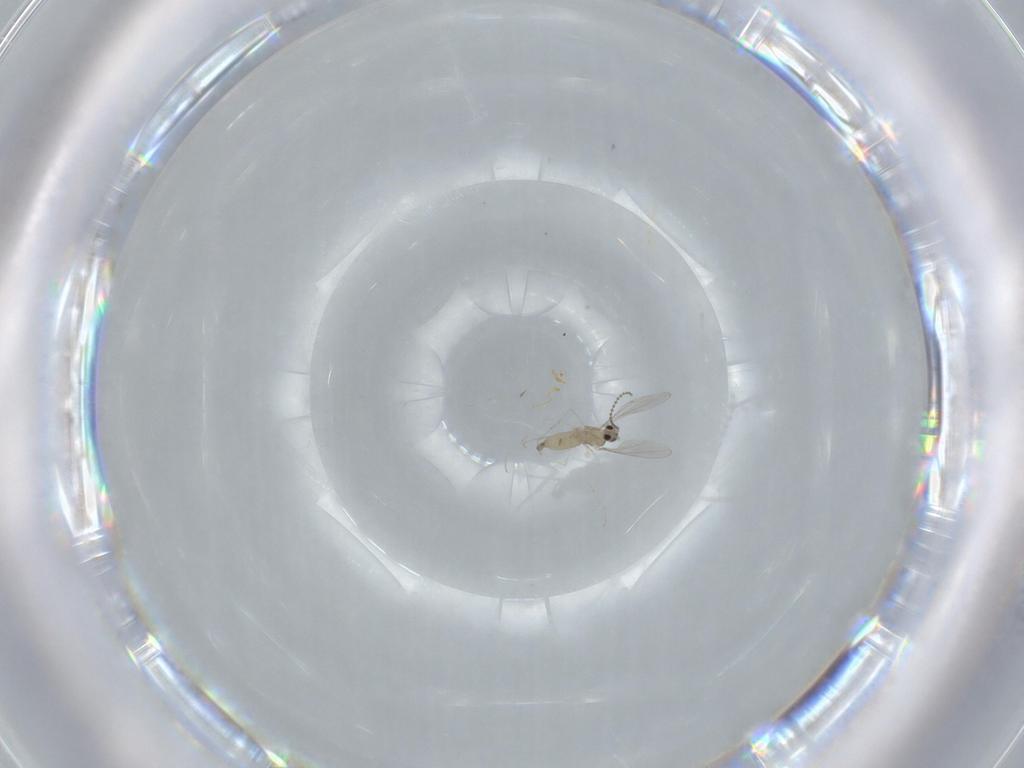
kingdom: Animalia
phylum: Arthropoda
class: Insecta
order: Diptera
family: Cecidomyiidae
